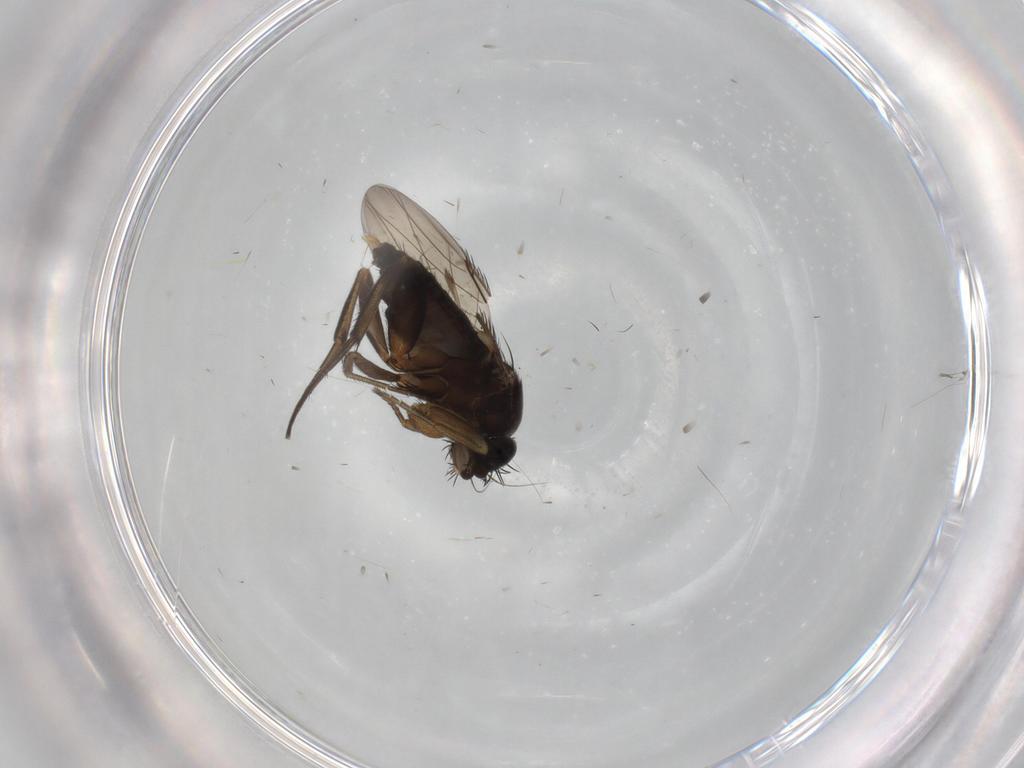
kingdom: Animalia
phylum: Arthropoda
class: Insecta
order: Diptera
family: Phoridae
